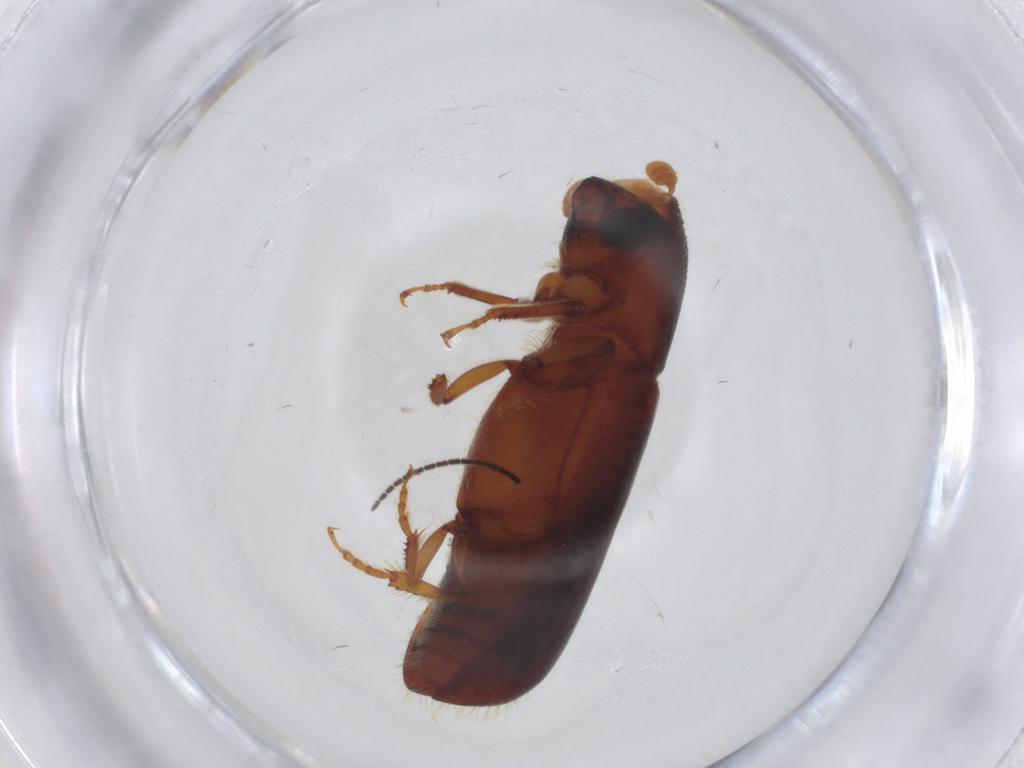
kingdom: Animalia
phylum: Arthropoda
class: Insecta
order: Coleoptera
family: Curculionidae
